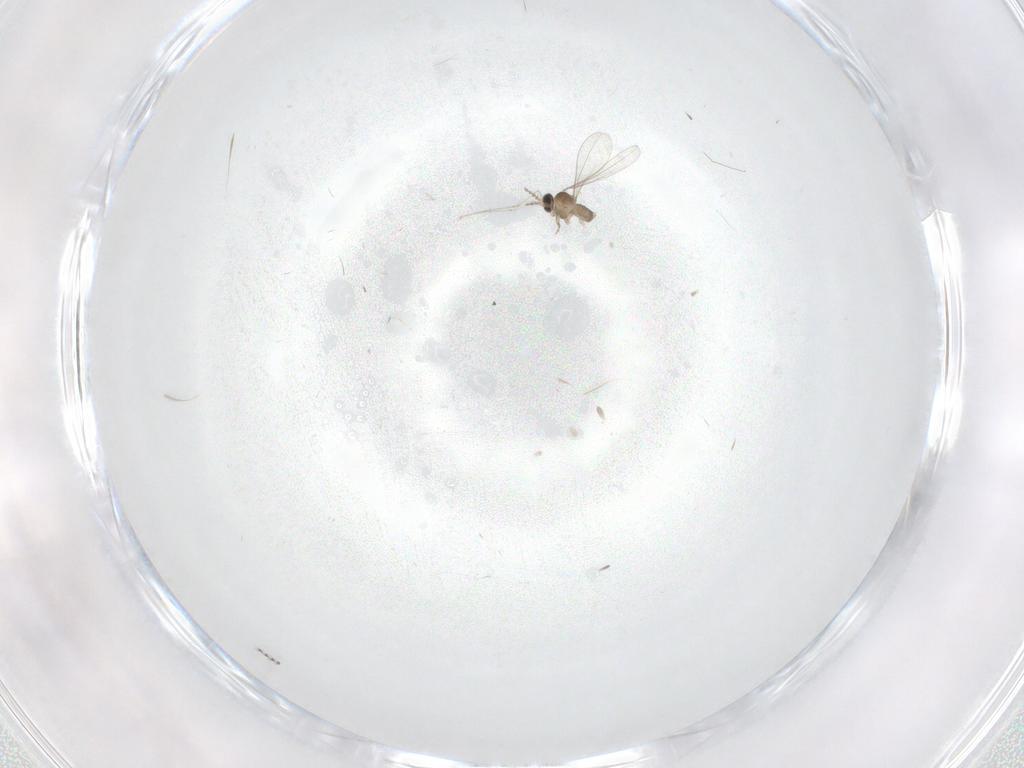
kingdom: Animalia
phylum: Arthropoda
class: Insecta
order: Diptera
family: Cecidomyiidae
